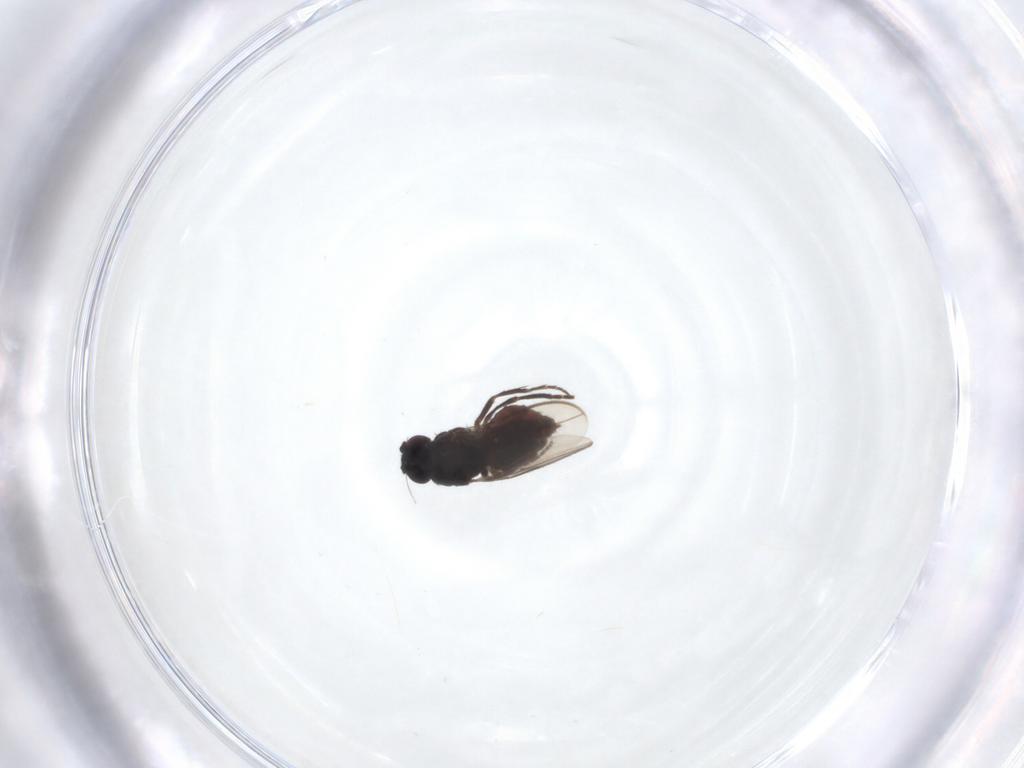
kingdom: Animalia
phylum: Arthropoda
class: Insecta
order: Diptera
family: Sphaeroceridae
